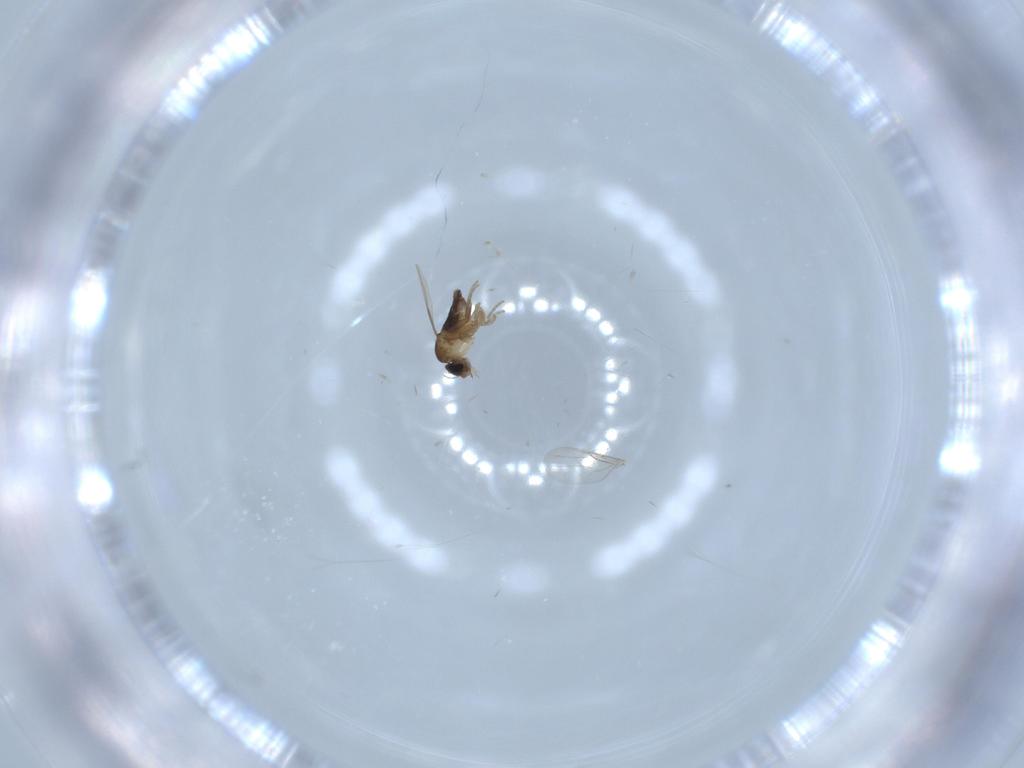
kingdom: Animalia
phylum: Arthropoda
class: Insecta
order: Diptera
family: Phoridae
